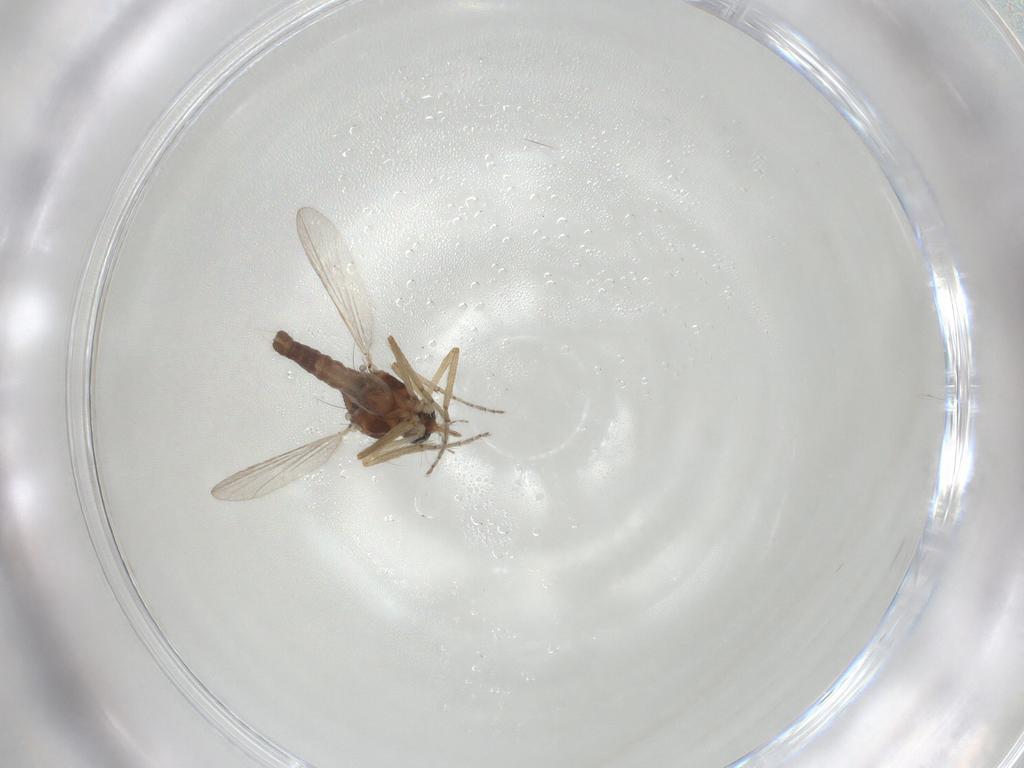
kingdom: Animalia
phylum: Arthropoda
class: Insecta
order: Diptera
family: Ceratopogonidae
